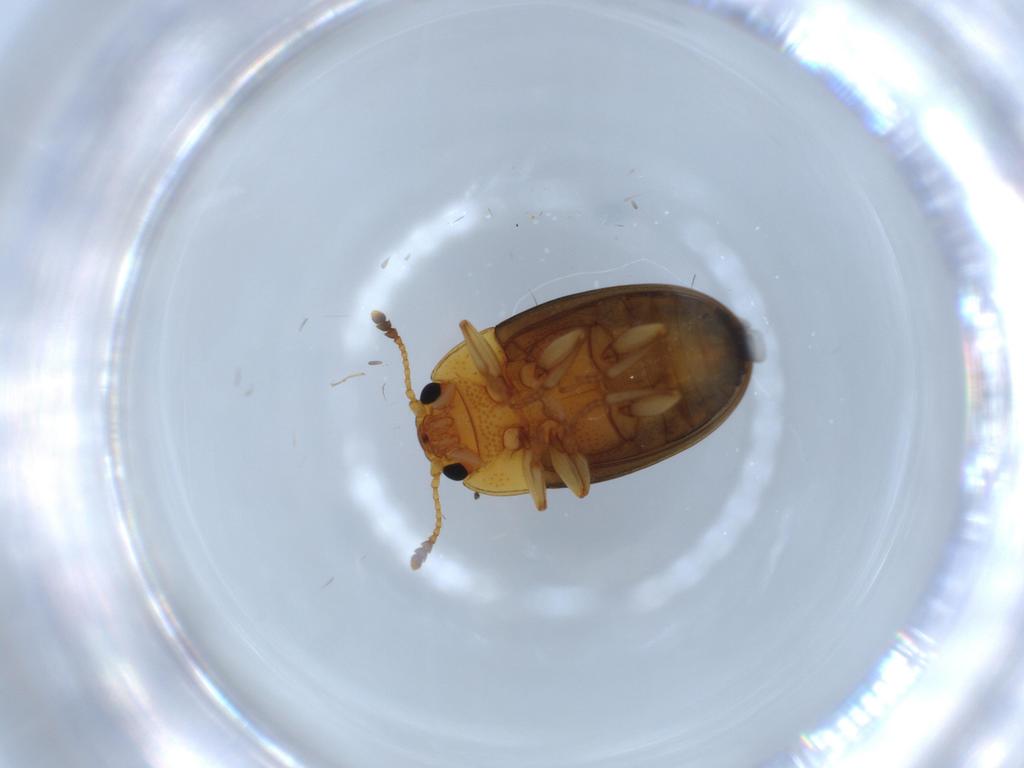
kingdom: Animalia
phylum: Arthropoda
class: Insecta
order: Coleoptera
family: Erotylidae
